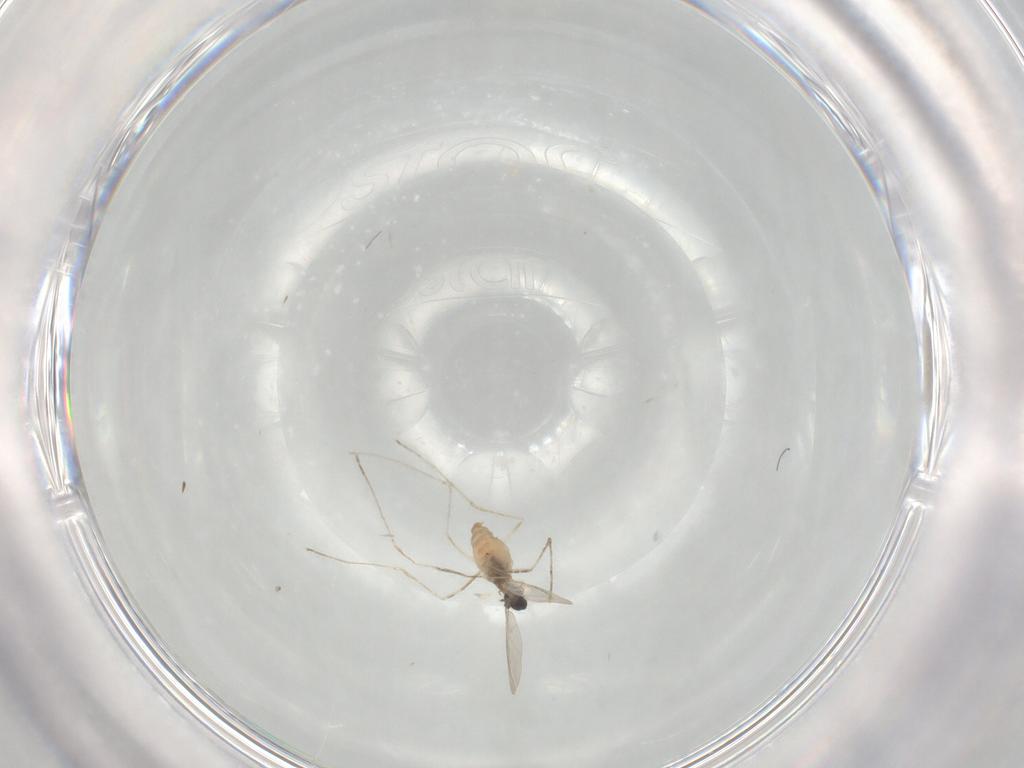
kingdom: Animalia
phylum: Arthropoda
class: Insecta
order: Diptera
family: Cecidomyiidae
